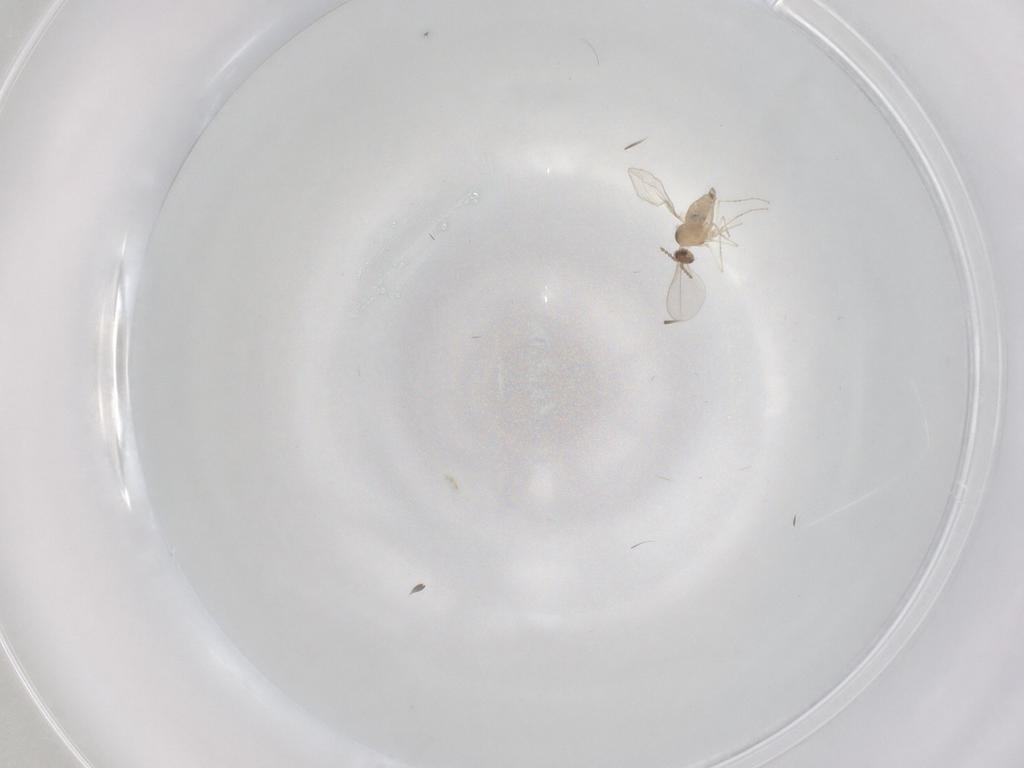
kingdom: Animalia
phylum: Arthropoda
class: Insecta
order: Diptera
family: Cecidomyiidae
